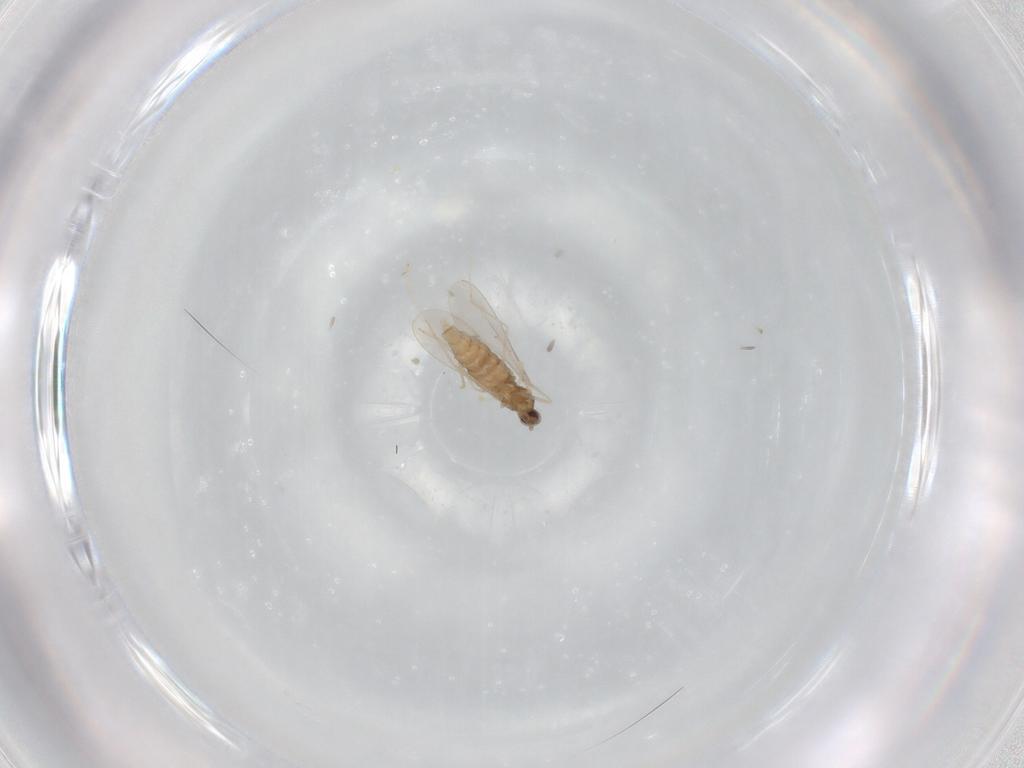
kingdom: Animalia
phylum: Arthropoda
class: Insecta
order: Diptera
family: Cecidomyiidae
